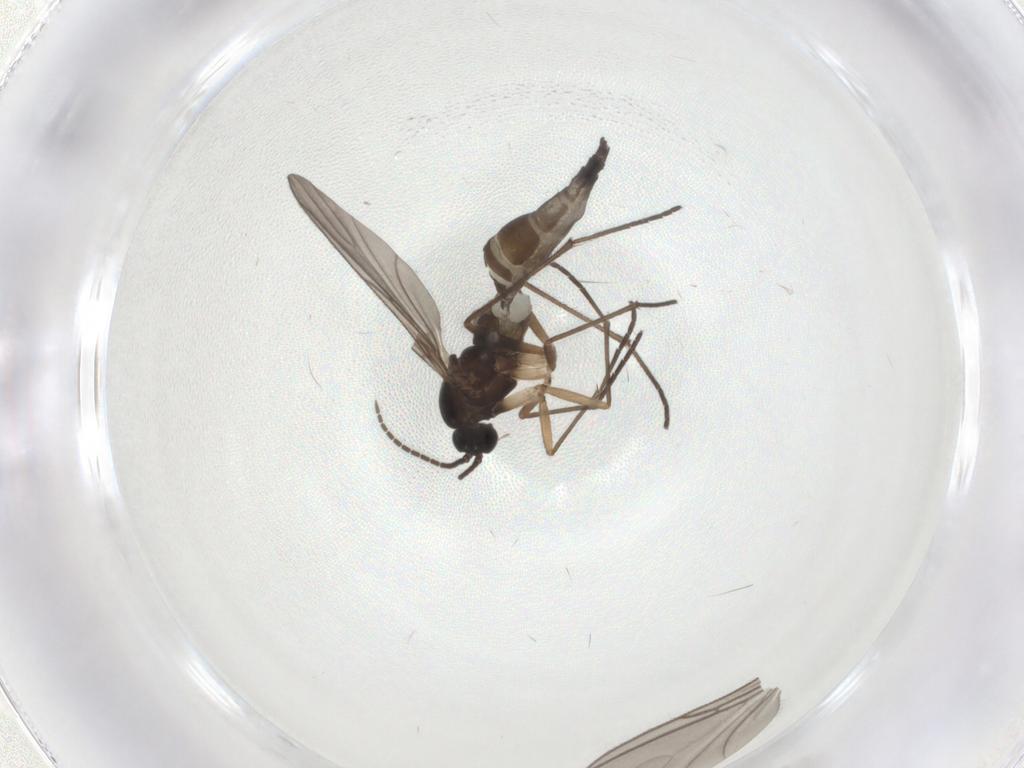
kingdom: Animalia
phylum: Arthropoda
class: Insecta
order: Diptera
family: Sciaridae
